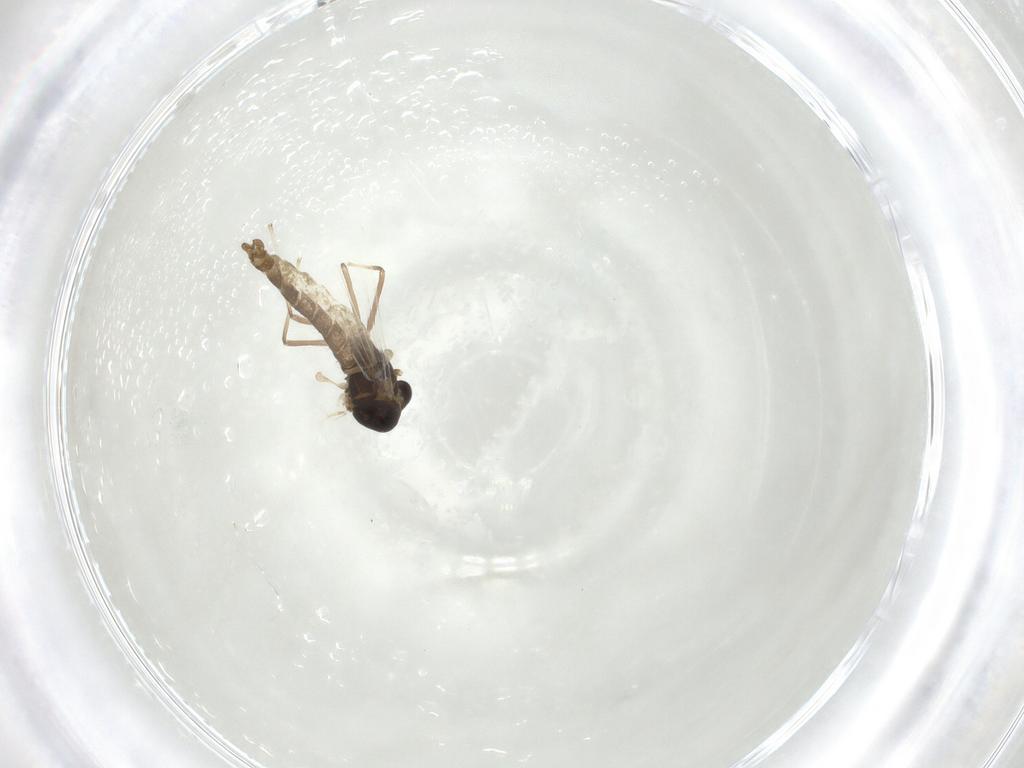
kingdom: Animalia
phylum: Arthropoda
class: Insecta
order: Diptera
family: Chironomidae
